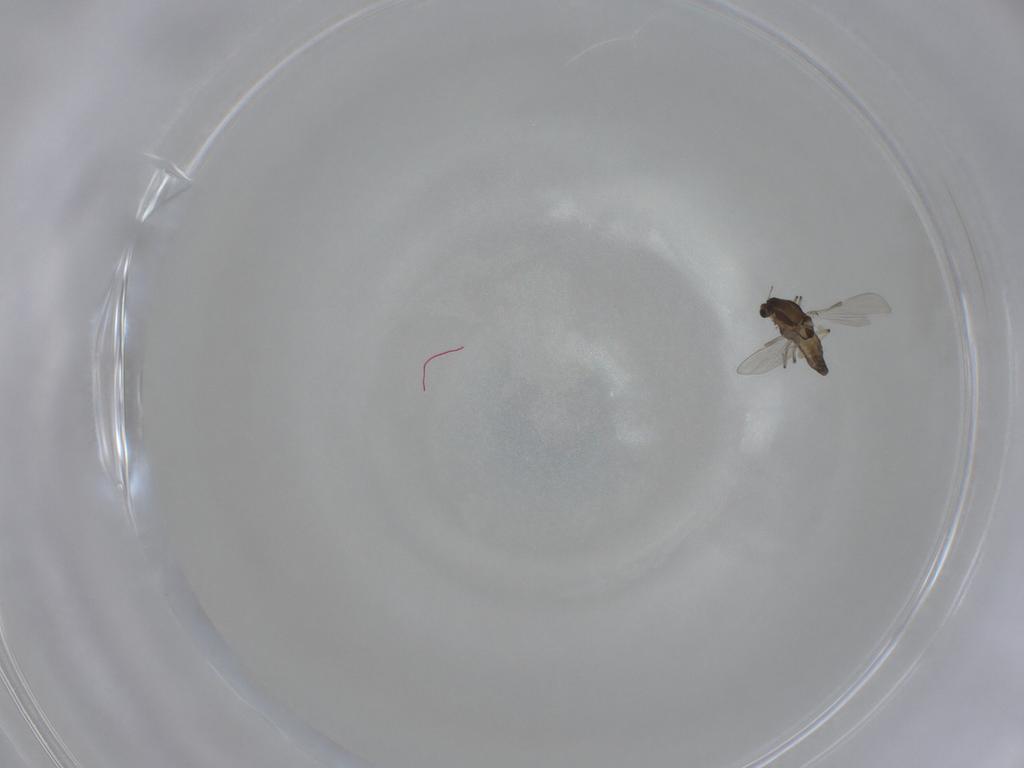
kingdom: Animalia
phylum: Arthropoda
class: Insecta
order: Diptera
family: Chironomidae
